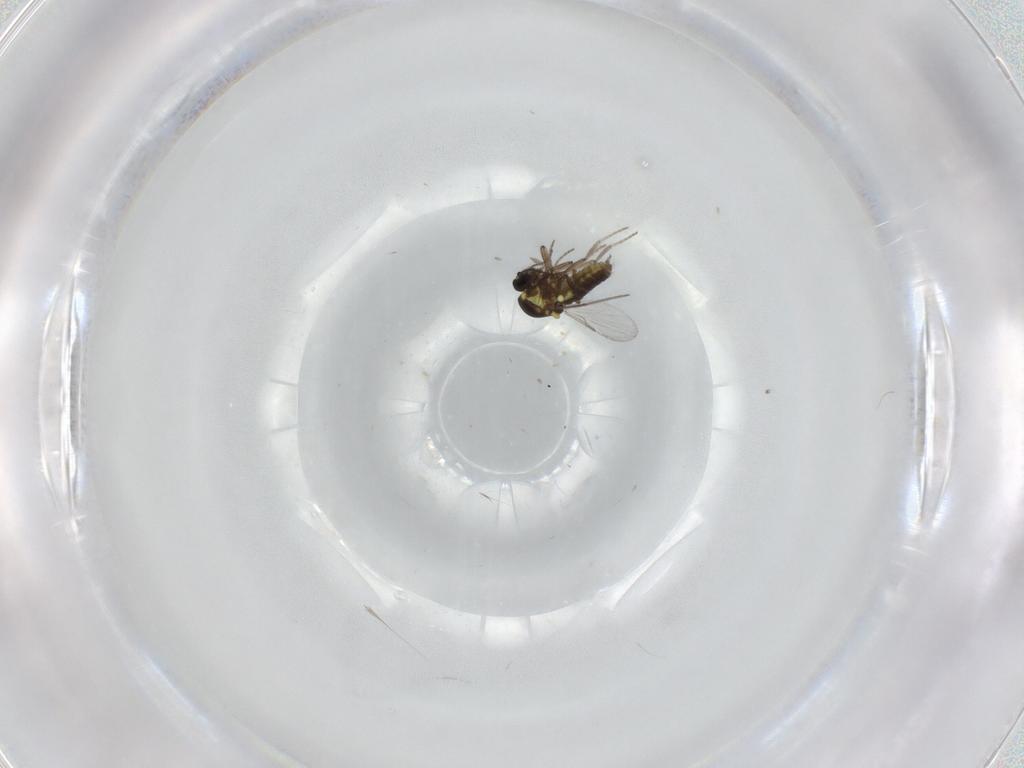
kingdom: Animalia
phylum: Arthropoda
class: Insecta
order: Diptera
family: Ceratopogonidae
